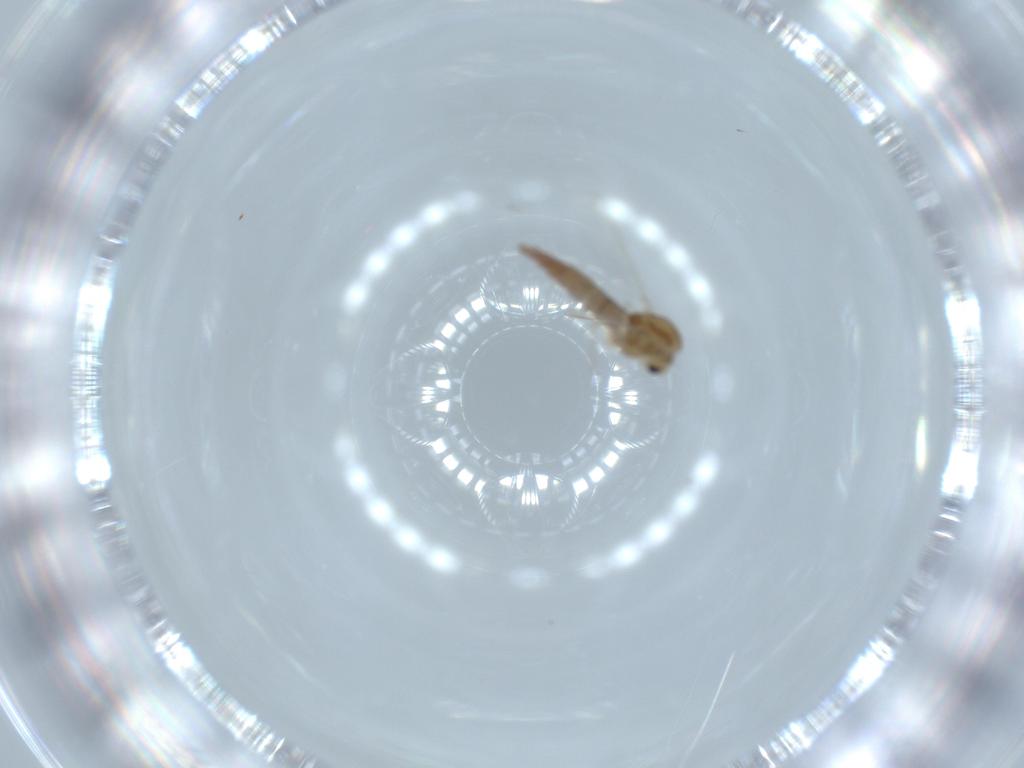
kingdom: Animalia
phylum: Arthropoda
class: Insecta
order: Diptera
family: Chironomidae
